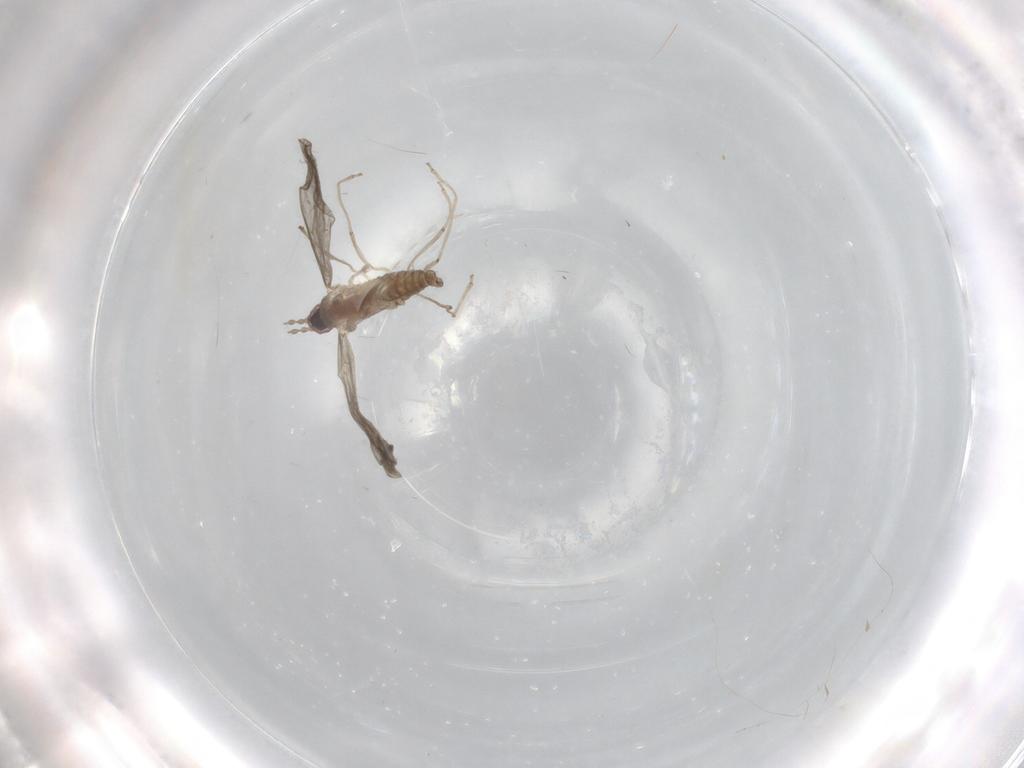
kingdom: Animalia
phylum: Arthropoda
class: Insecta
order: Diptera
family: Cecidomyiidae
